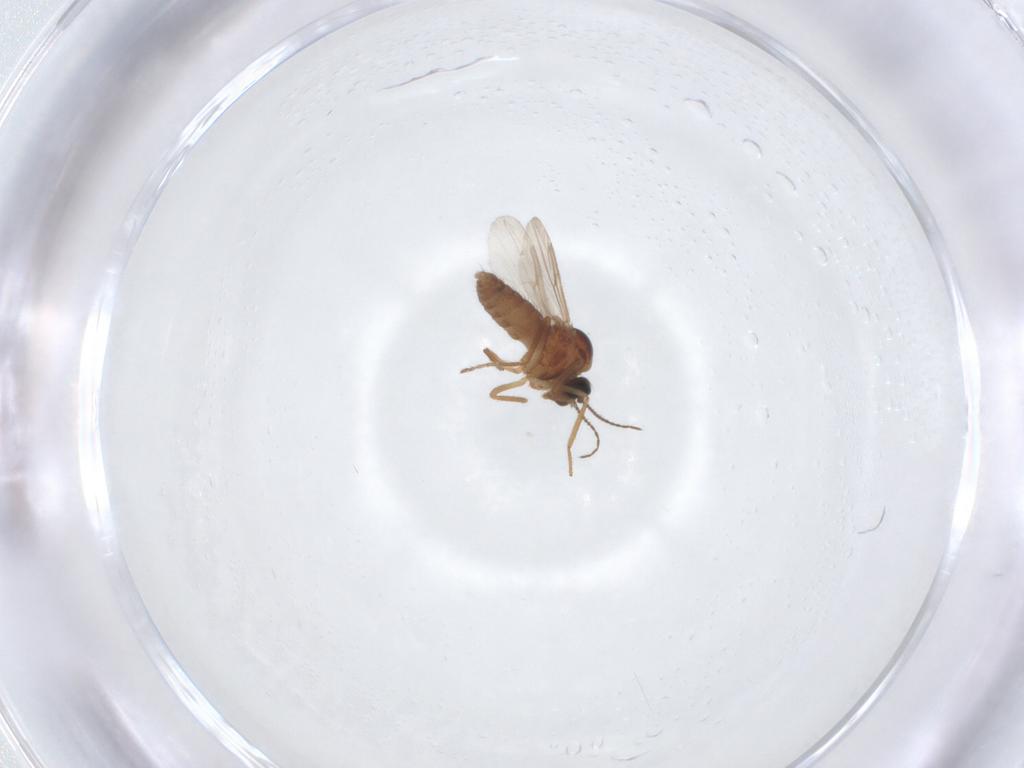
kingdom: Animalia
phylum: Arthropoda
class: Insecta
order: Diptera
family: Ceratopogonidae
